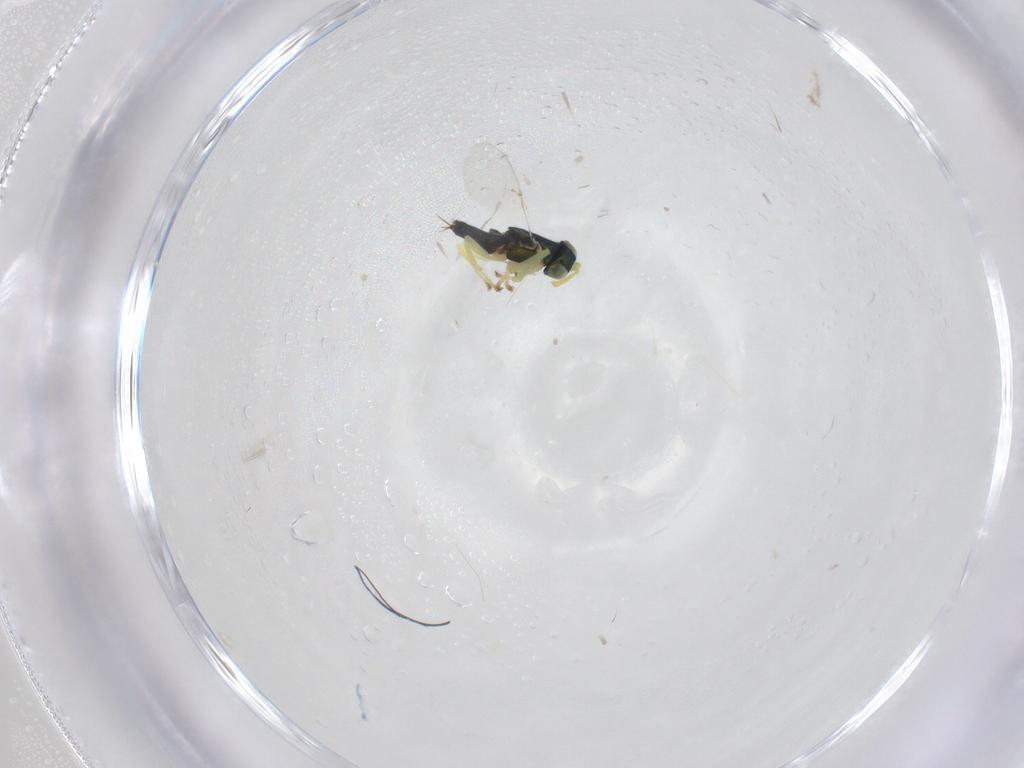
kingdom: Animalia
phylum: Arthropoda
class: Insecta
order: Hymenoptera
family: Encyrtidae
